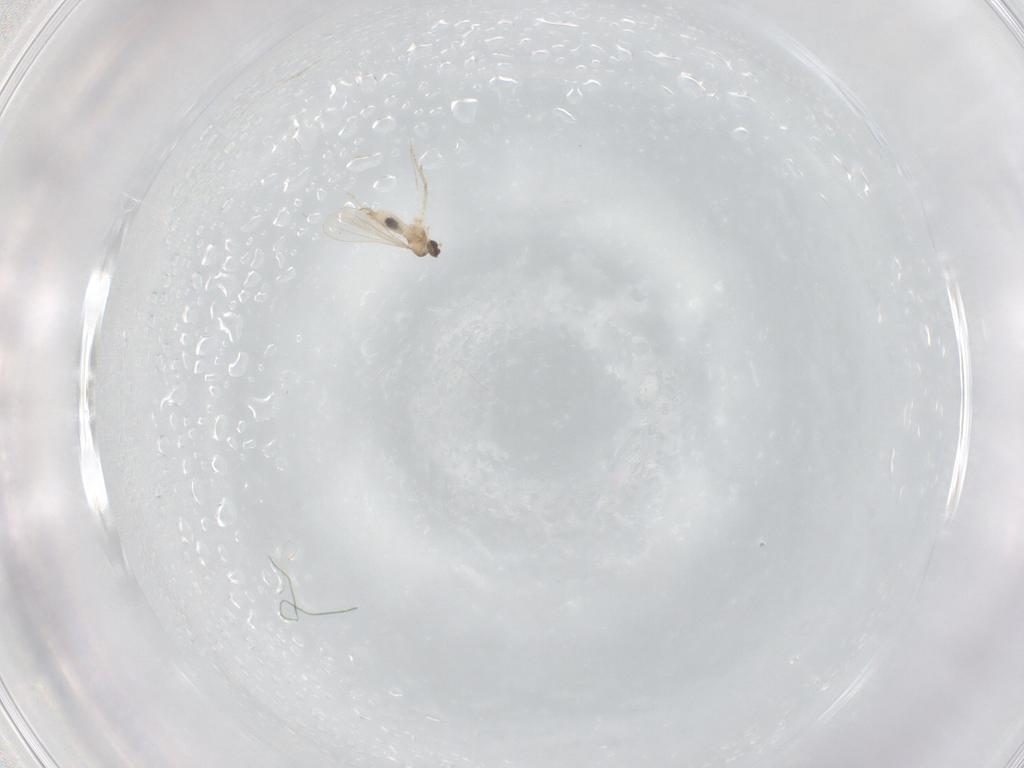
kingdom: Animalia
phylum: Arthropoda
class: Insecta
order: Diptera
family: Cecidomyiidae
